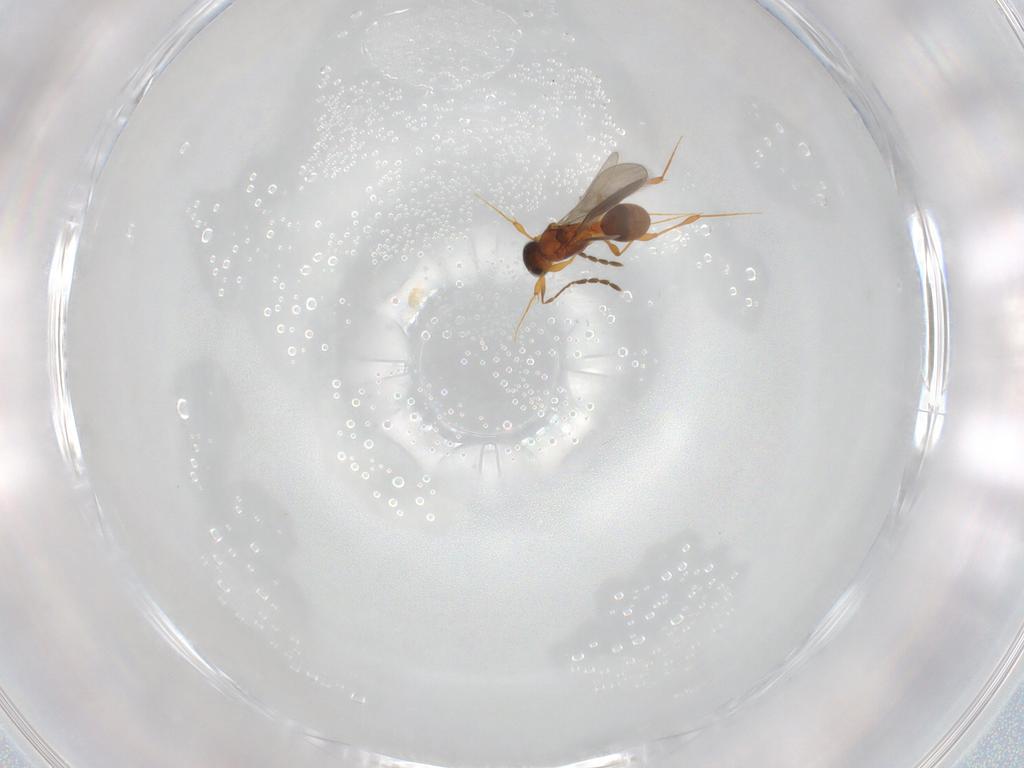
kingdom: Animalia
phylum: Arthropoda
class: Insecta
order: Hymenoptera
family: Platygastridae
